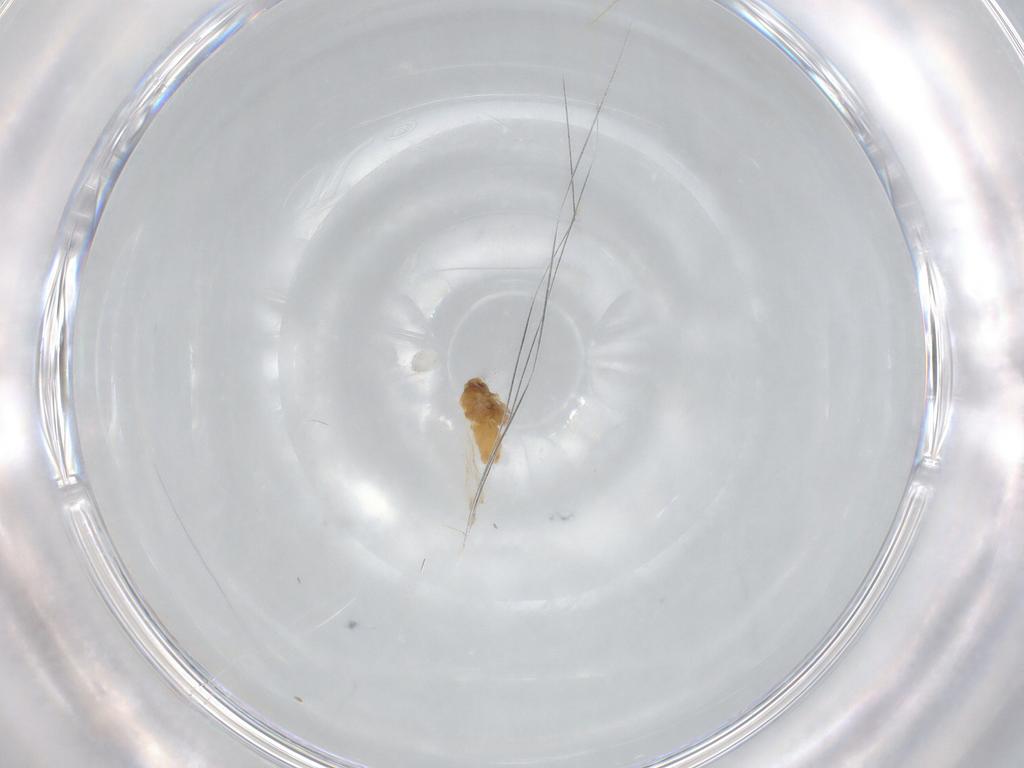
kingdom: Animalia
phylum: Arthropoda
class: Insecta
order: Hemiptera
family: Aleyrodidae
